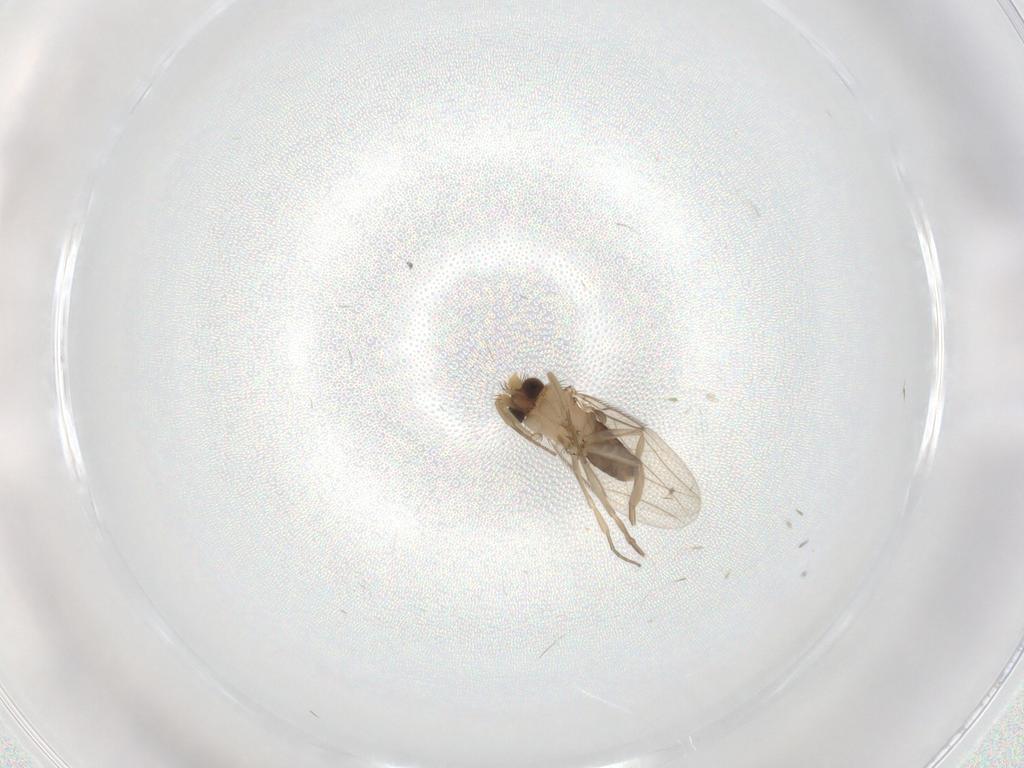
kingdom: Animalia
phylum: Arthropoda
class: Insecta
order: Diptera
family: Phoridae
